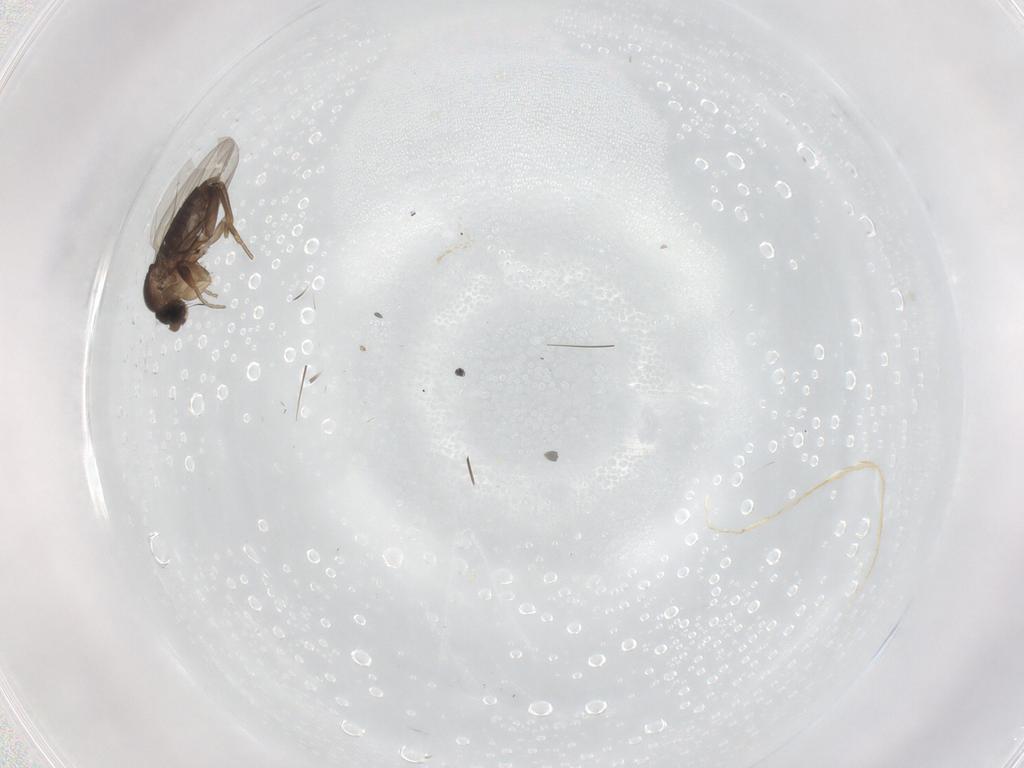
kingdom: Animalia
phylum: Arthropoda
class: Insecta
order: Diptera
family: Phoridae
